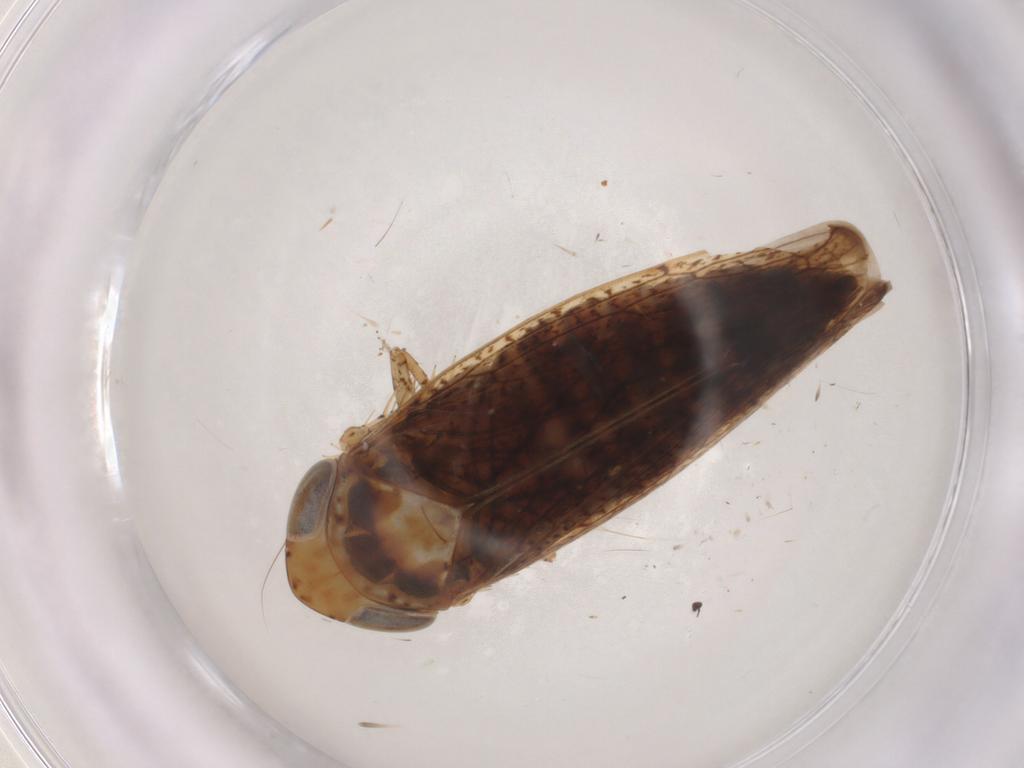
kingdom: Animalia
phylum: Arthropoda
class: Insecta
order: Hemiptera
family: Cicadellidae
